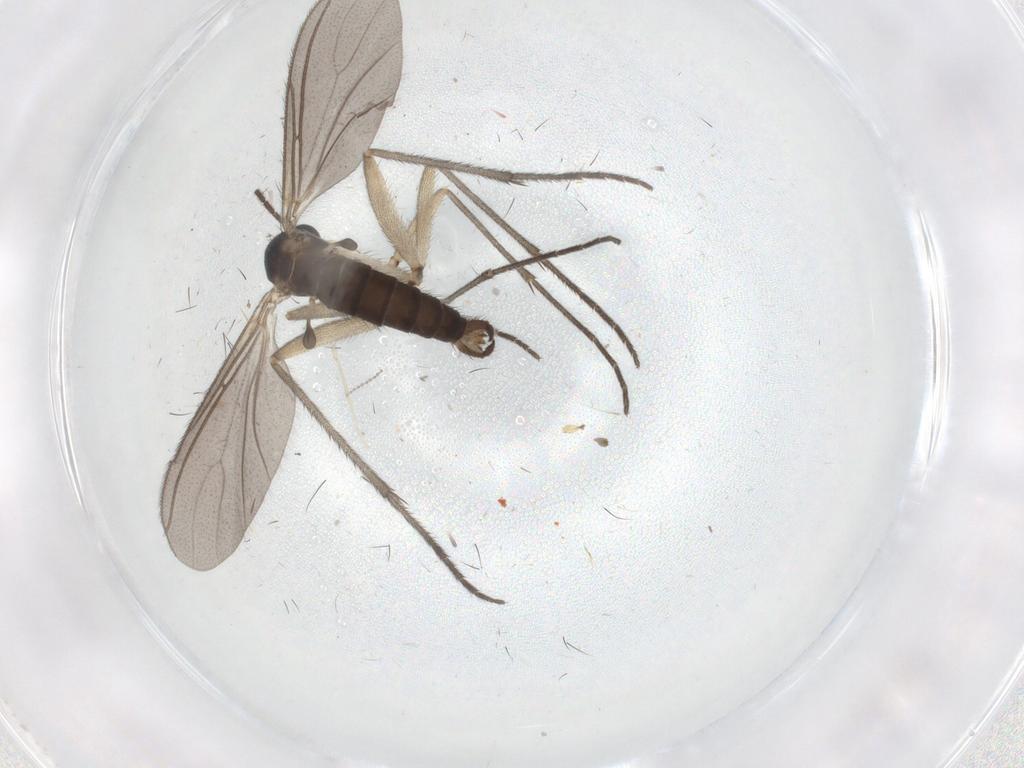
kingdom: Animalia
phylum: Arthropoda
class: Insecta
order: Diptera
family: Sciaridae
